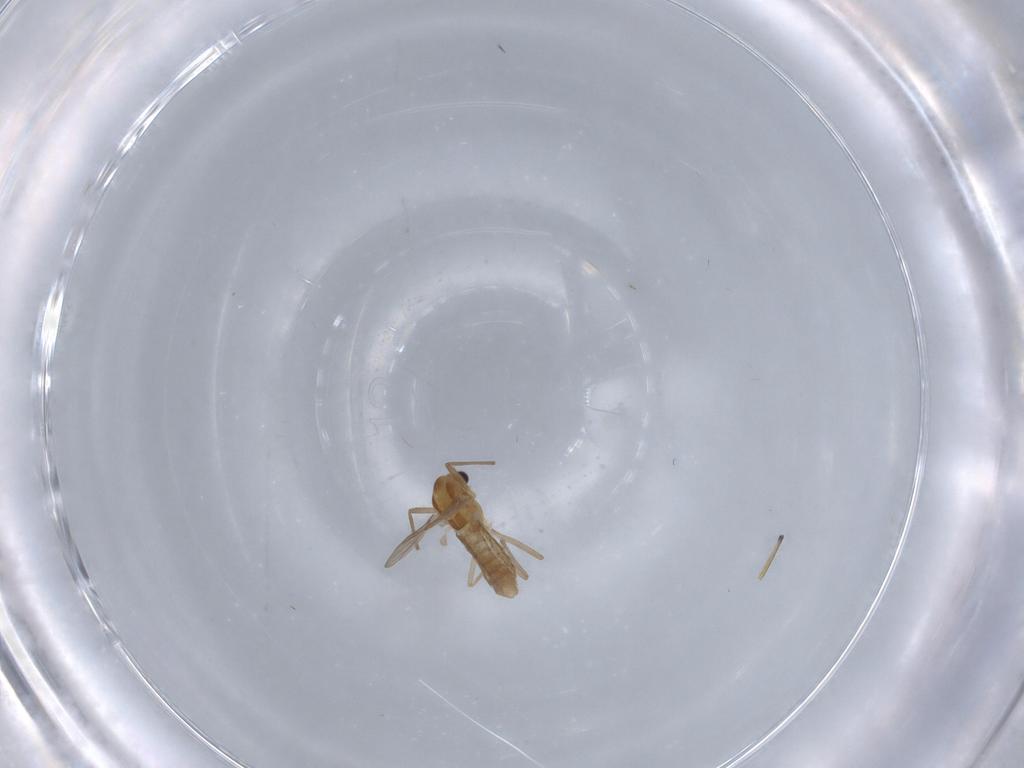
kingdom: Animalia
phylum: Arthropoda
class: Insecta
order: Diptera
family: Chironomidae
